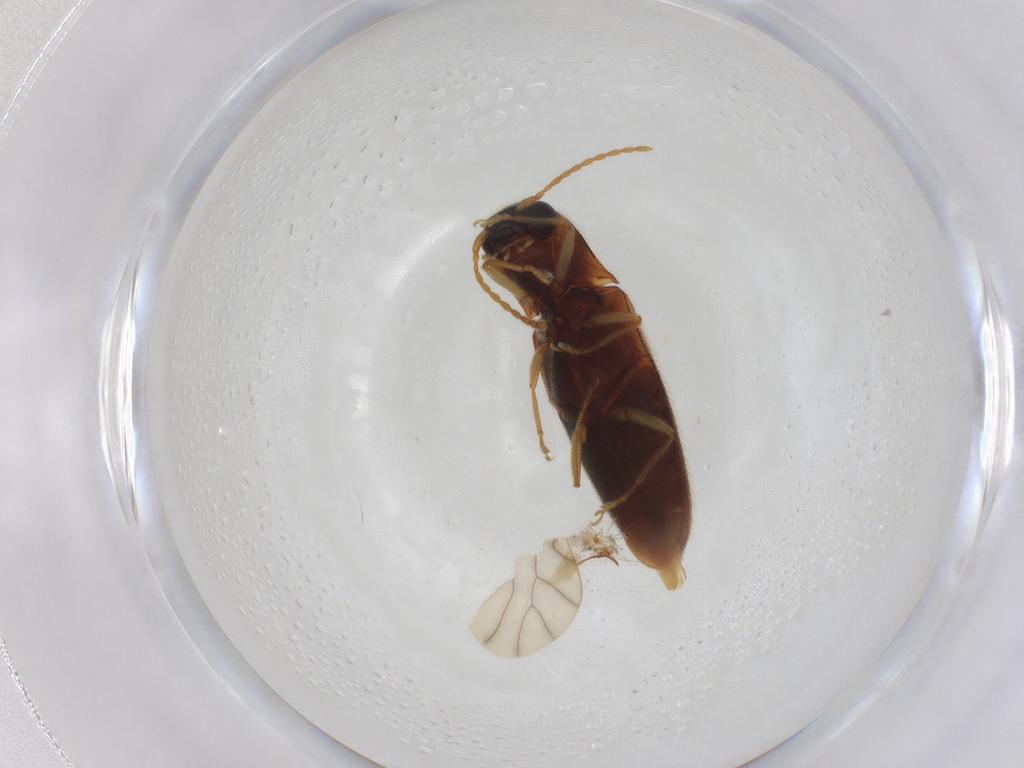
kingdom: Animalia
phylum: Arthropoda
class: Insecta
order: Coleoptera
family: Elateridae
